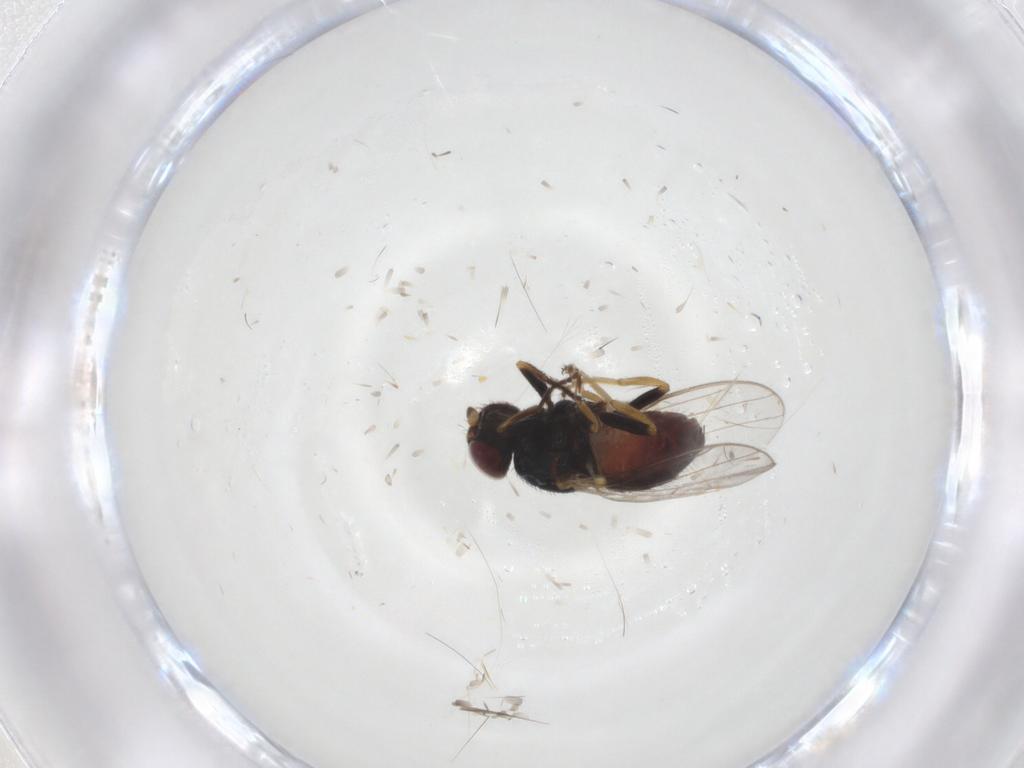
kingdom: Animalia
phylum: Arthropoda
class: Insecta
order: Diptera
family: Chloropidae
